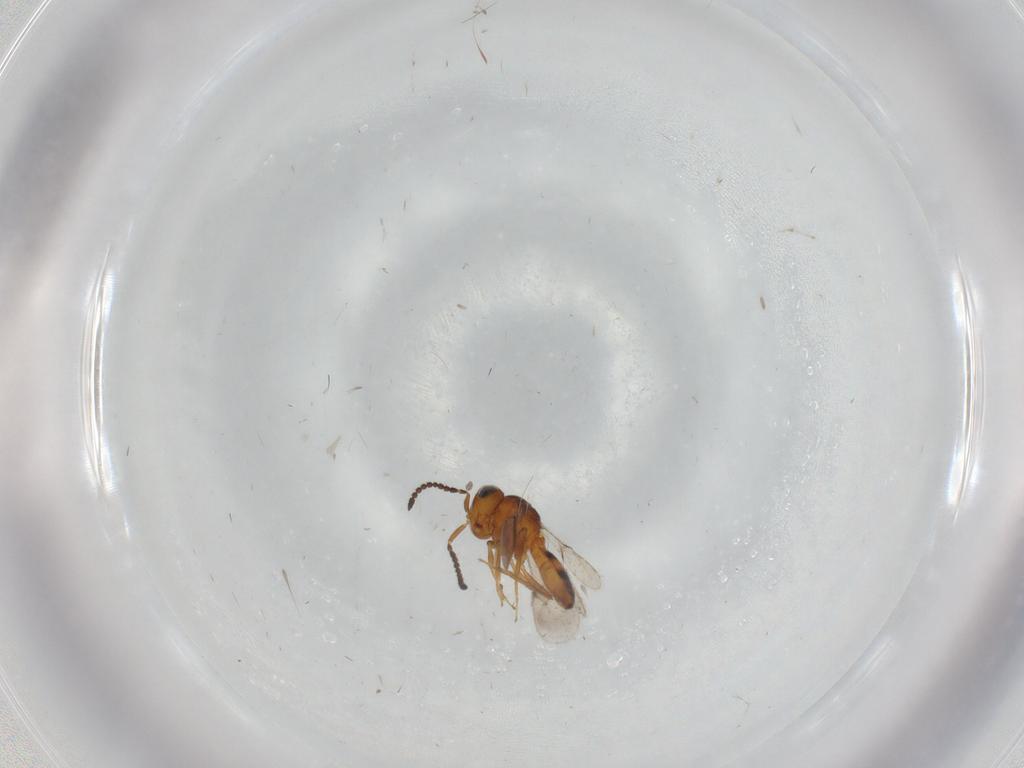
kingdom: Animalia
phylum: Arthropoda
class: Insecta
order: Hymenoptera
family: Scelionidae
